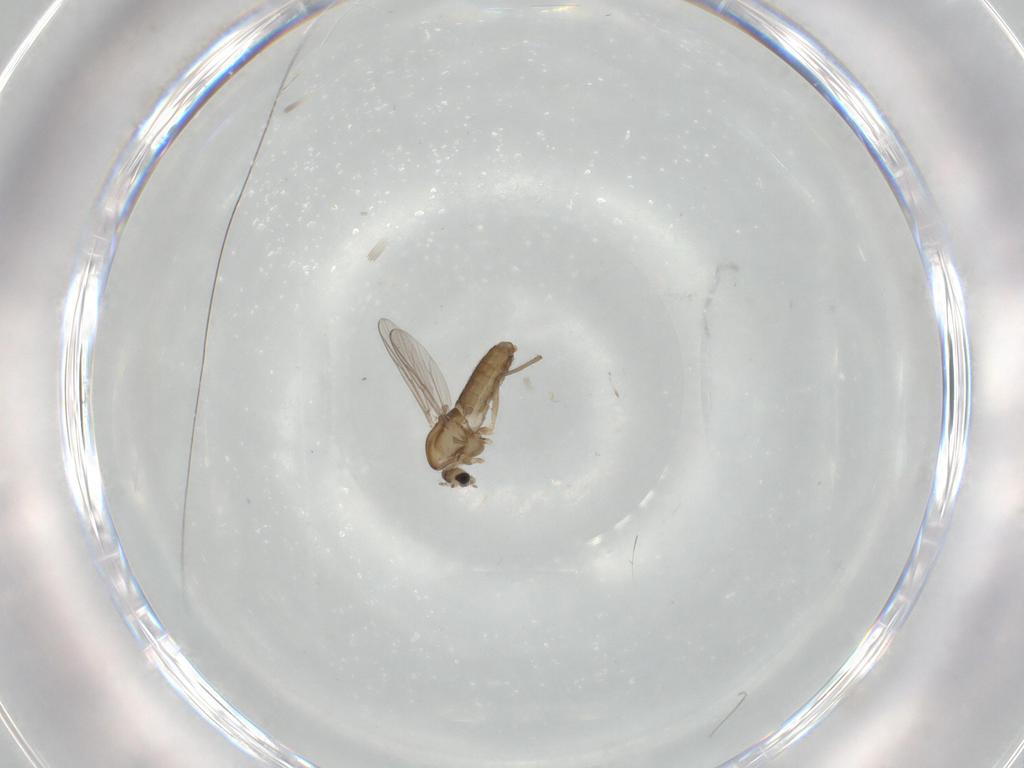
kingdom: Animalia
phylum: Arthropoda
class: Insecta
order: Diptera
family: Chironomidae
